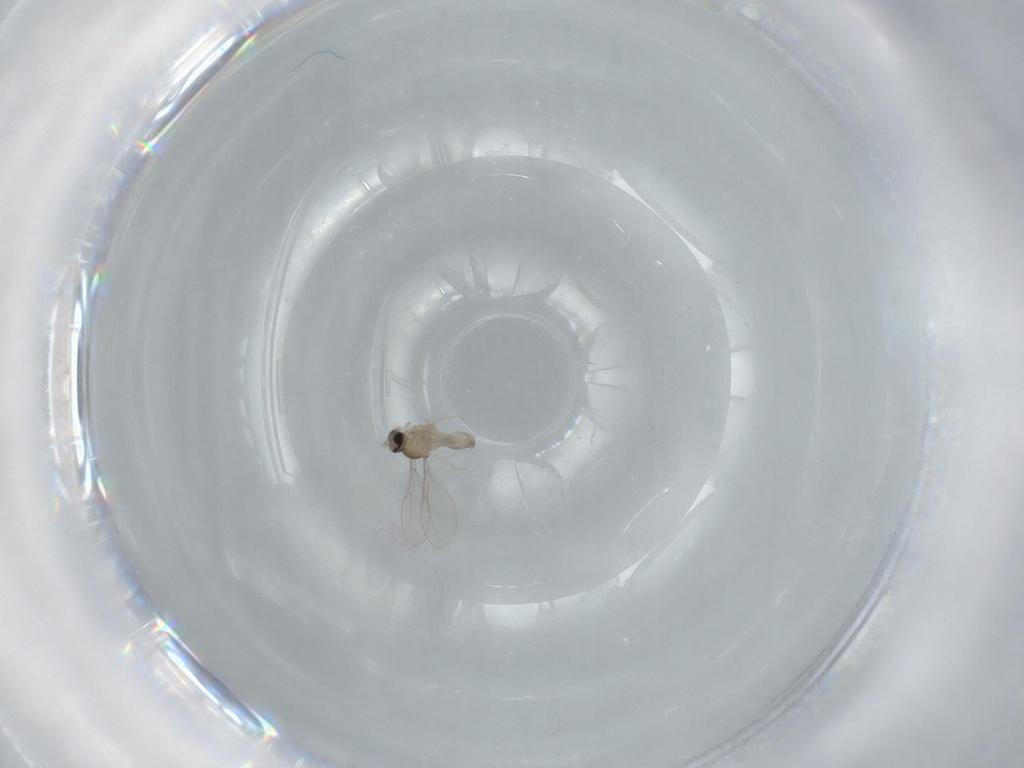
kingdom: Animalia
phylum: Arthropoda
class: Insecta
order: Diptera
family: Cecidomyiidae
